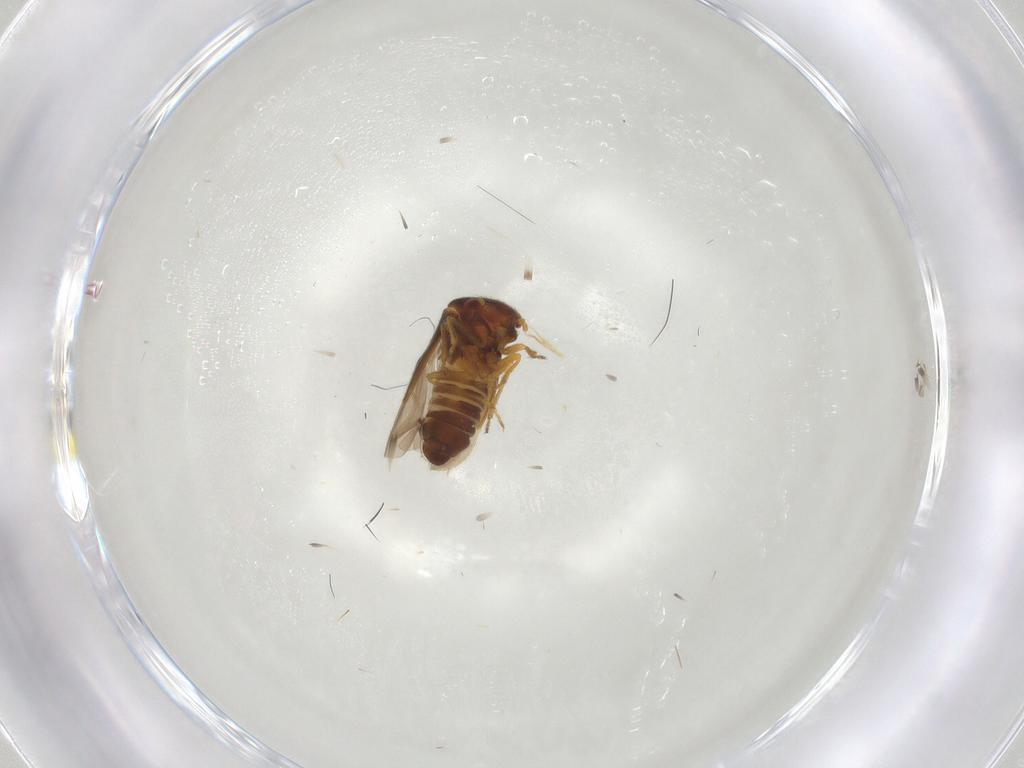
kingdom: Animalia
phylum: Arthropoda
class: Insecta
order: Hemiptera
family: Schizopteridae
